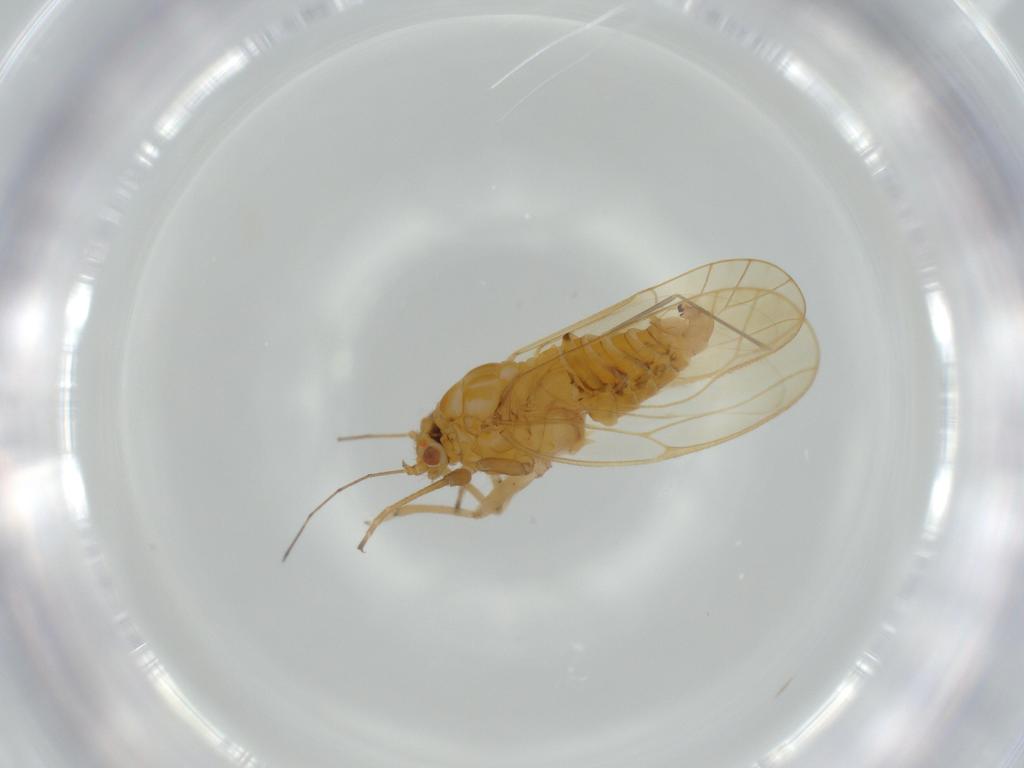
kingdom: Animalia
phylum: Arthropoda
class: Insecta
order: Hemiptera
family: Psyllidae
